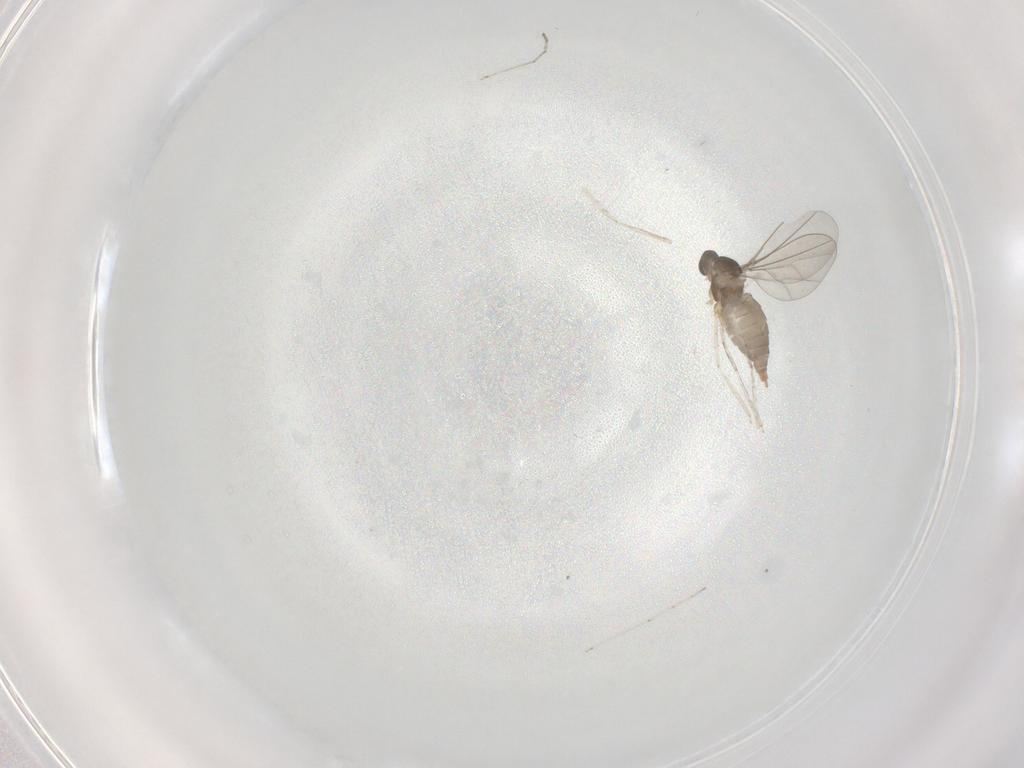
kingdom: Animalia
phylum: Arthropoda
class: Insecta
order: Diptera
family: Cecidomyiidae
